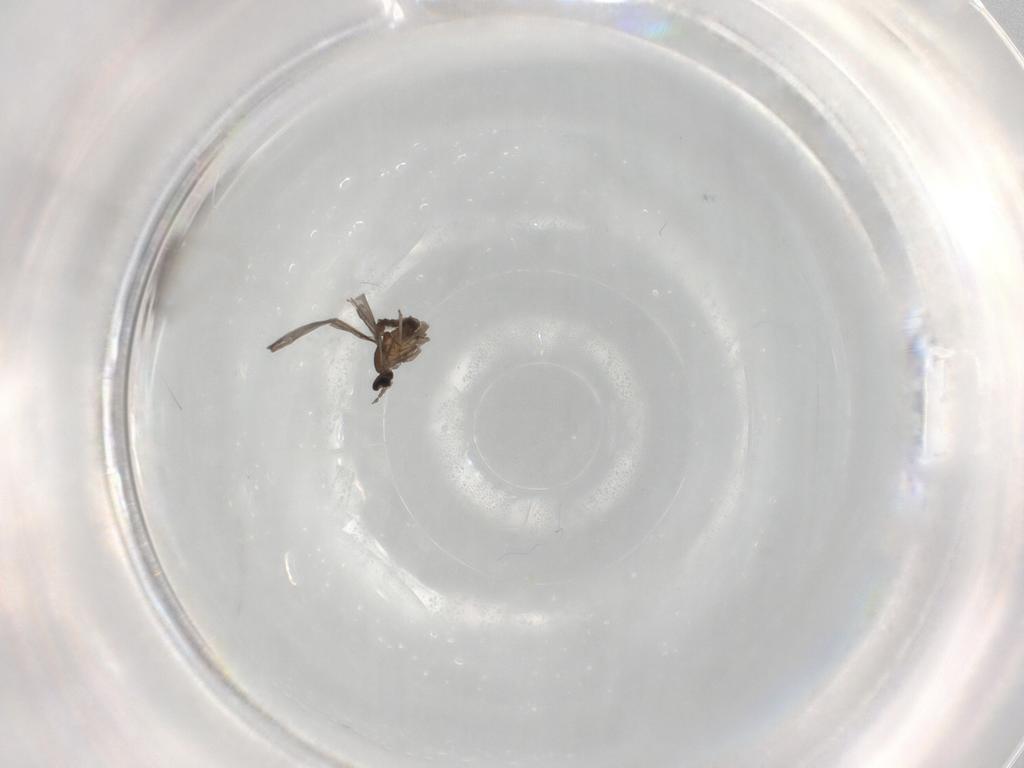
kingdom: Animalia
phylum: Arthropoda
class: Insecta
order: Diptera
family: Cecidomyiidae
